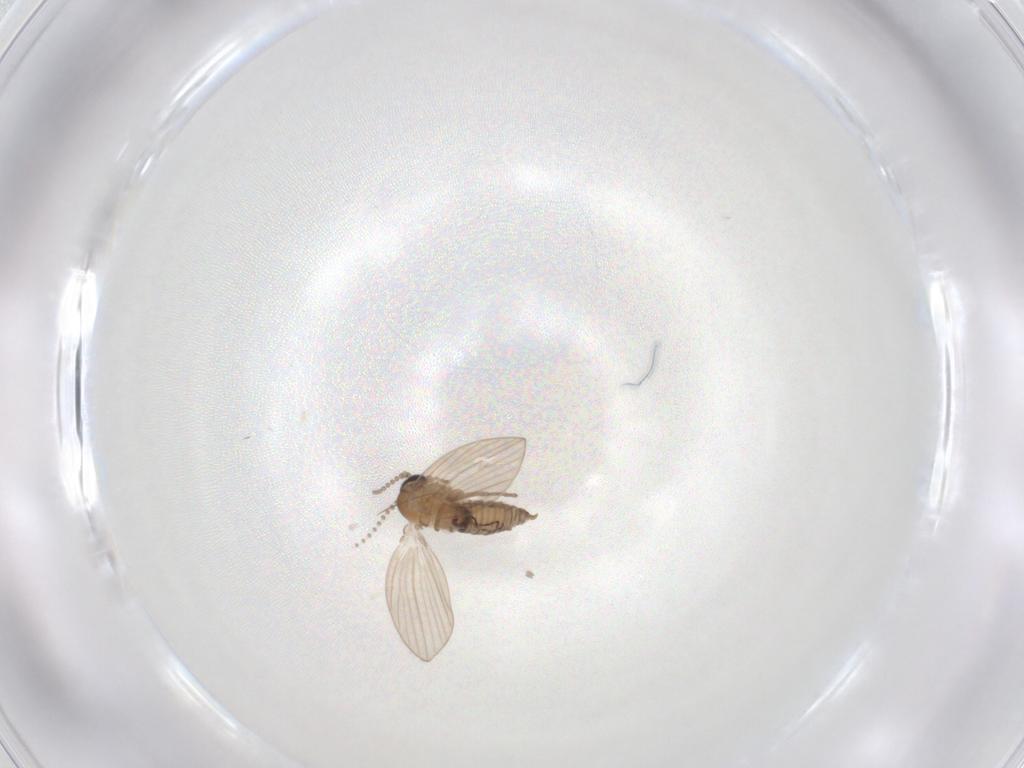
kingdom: Animalia
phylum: Arthropoda
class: Insecta
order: Diptera
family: Psychodidae
